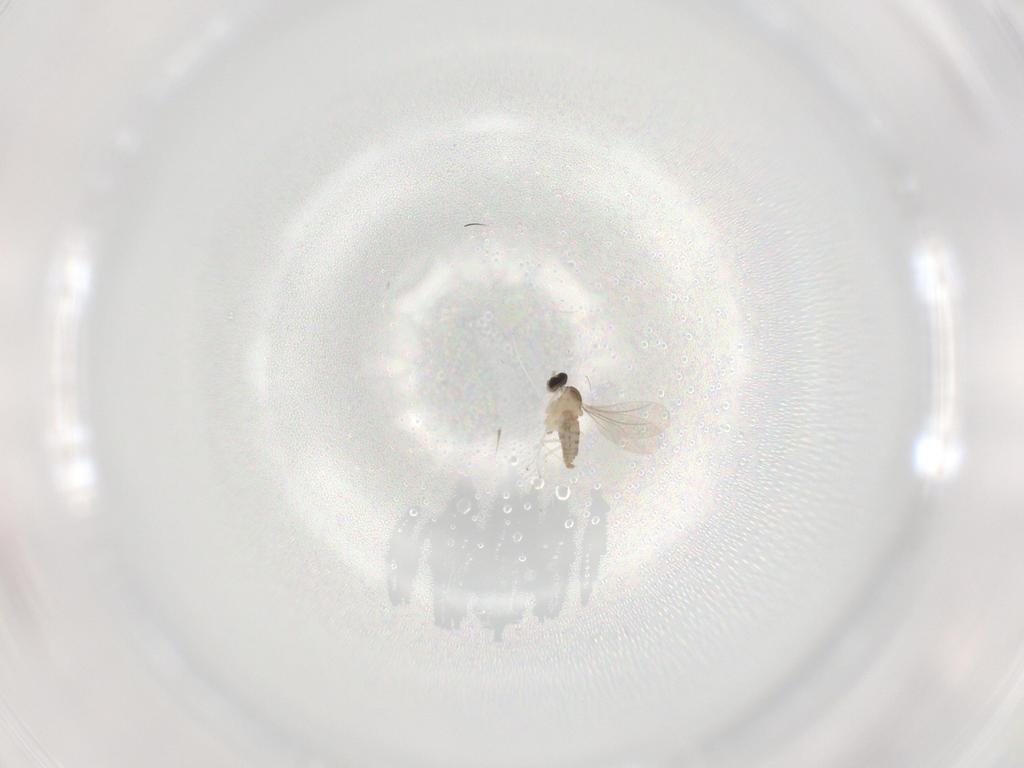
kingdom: Animalia
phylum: Arthropoda
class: Insecta
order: Diptera
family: Cecidomyiidae
